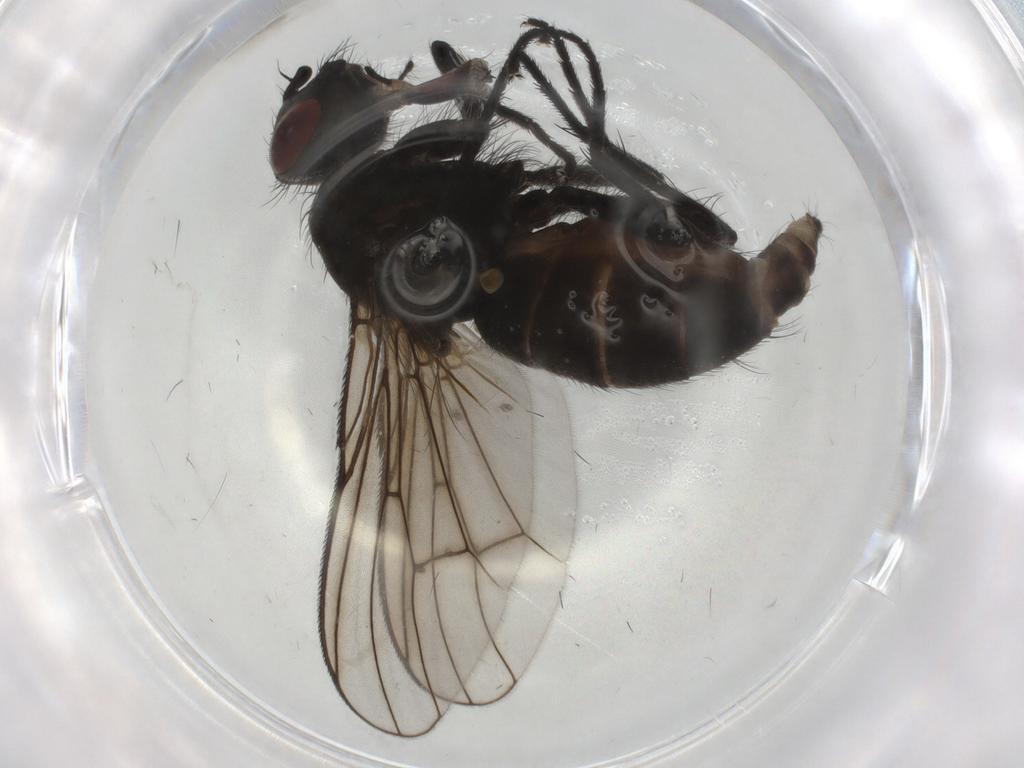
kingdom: Animalia
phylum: Arthropoda
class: Insecta
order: Diptera
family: Muscidae
